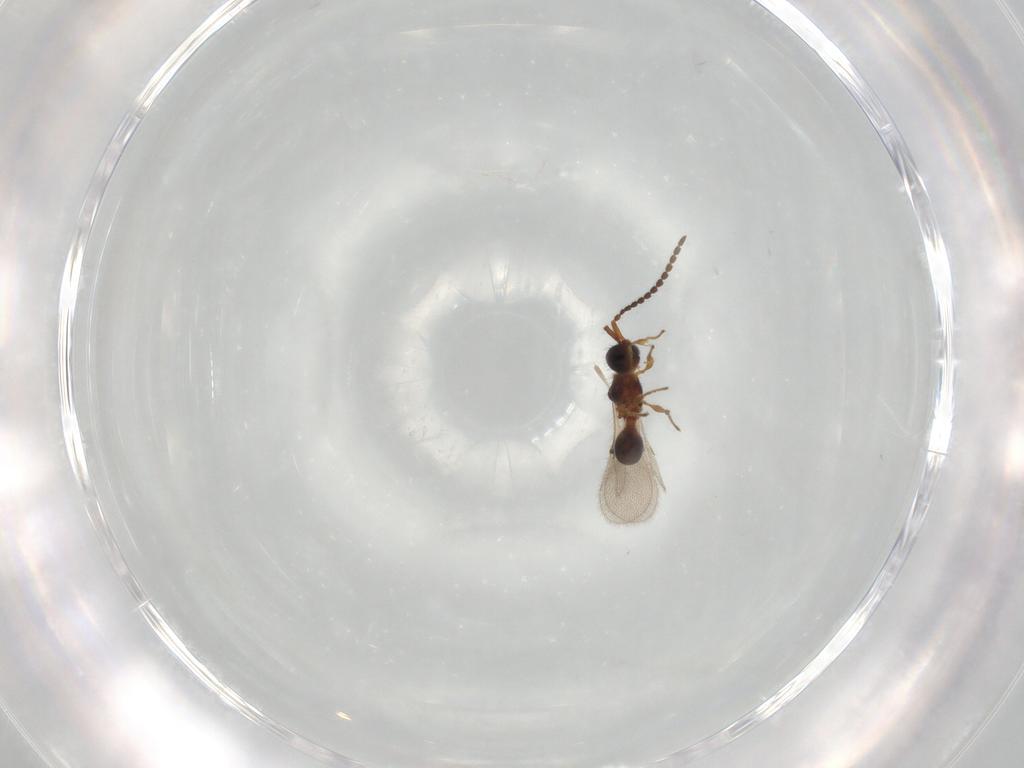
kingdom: Animalia
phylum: Arthropoda
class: Insecta
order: Hymenoptera
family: Diapriidae
